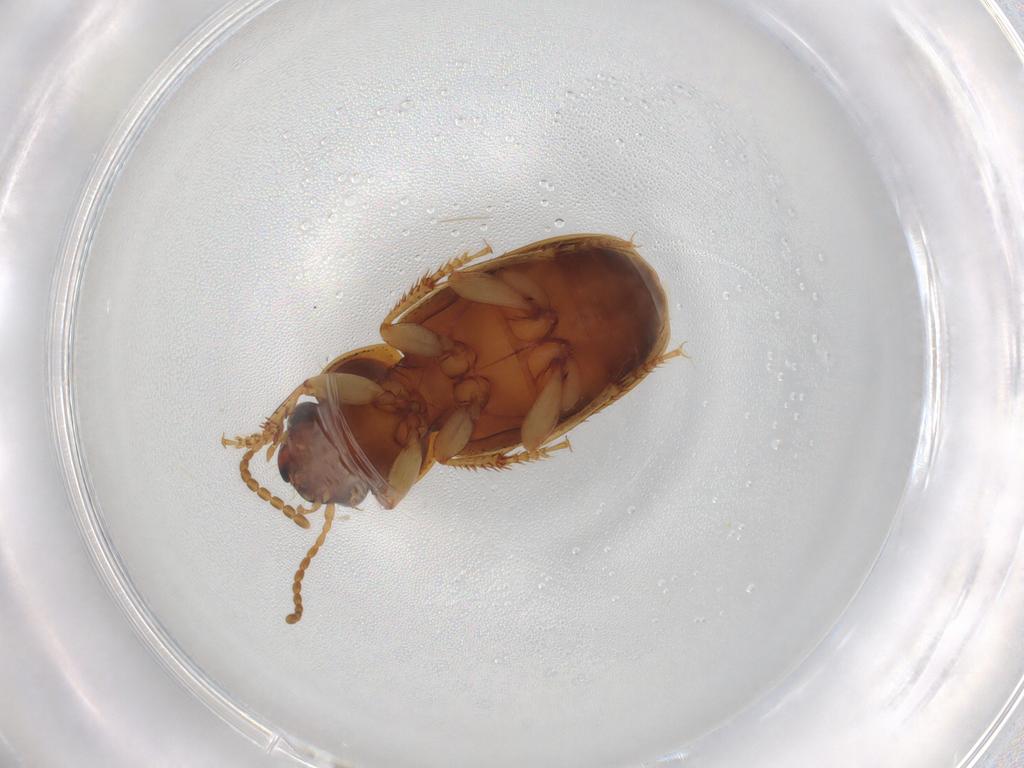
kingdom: Animalia
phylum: Arthropoda
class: Insecta
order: Coleoptera
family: Carabidae
